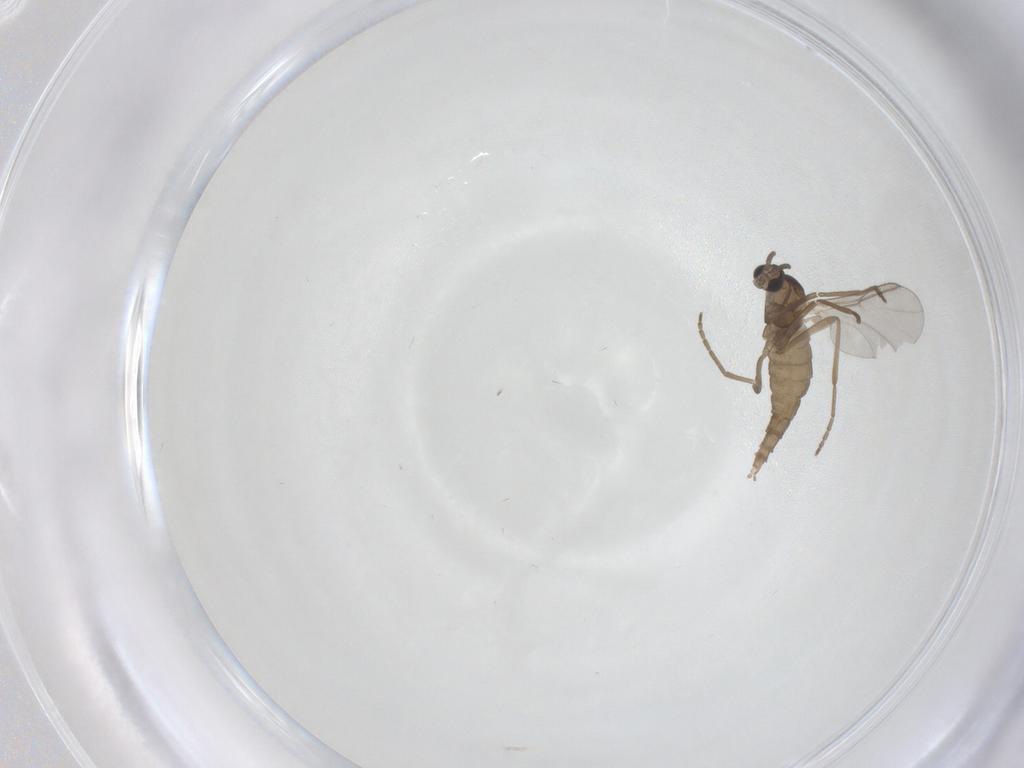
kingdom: Animalia
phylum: Arthropoda
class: Insecta
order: Diptera
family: Cecidomyiidae
